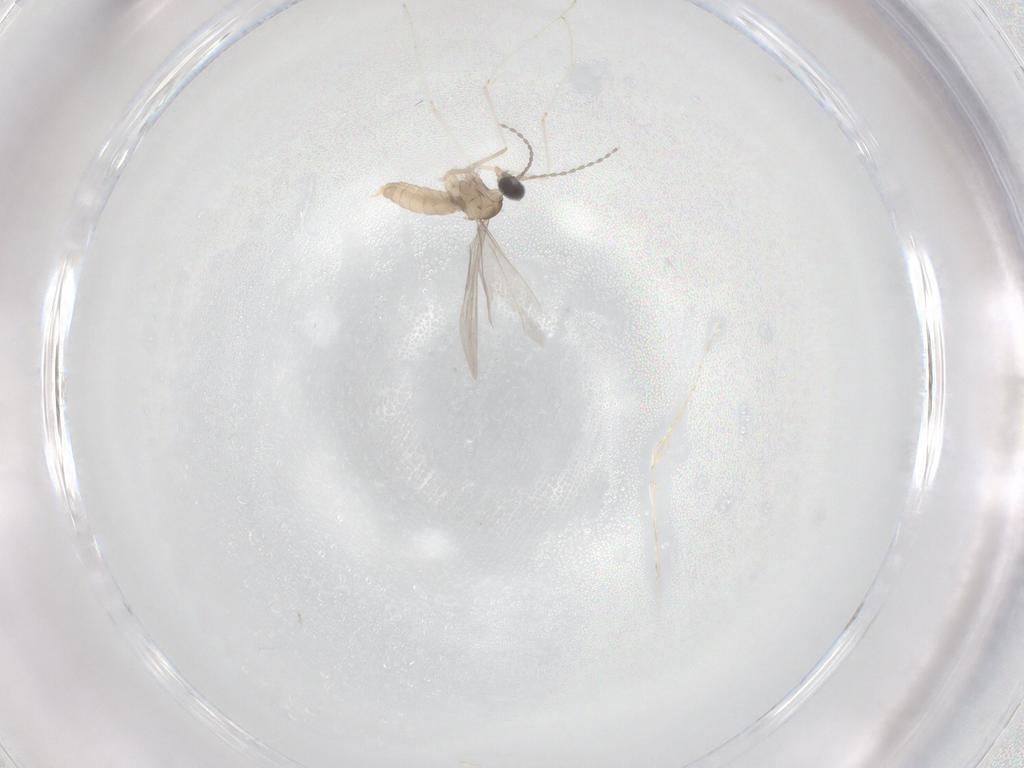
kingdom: Animalia
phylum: Arthropoda
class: Insecta
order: Diptera
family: Cecidomyiidae
